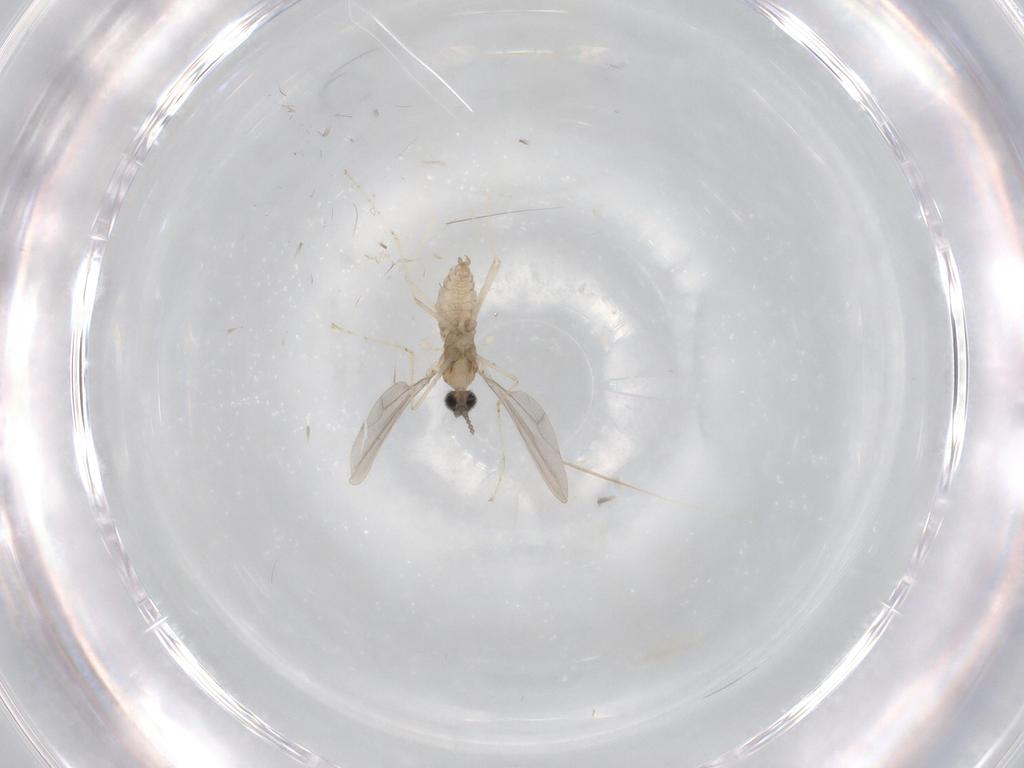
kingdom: Animalia
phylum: Arthropoda
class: Insecta
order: Diptera
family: Cecidomyiidae
